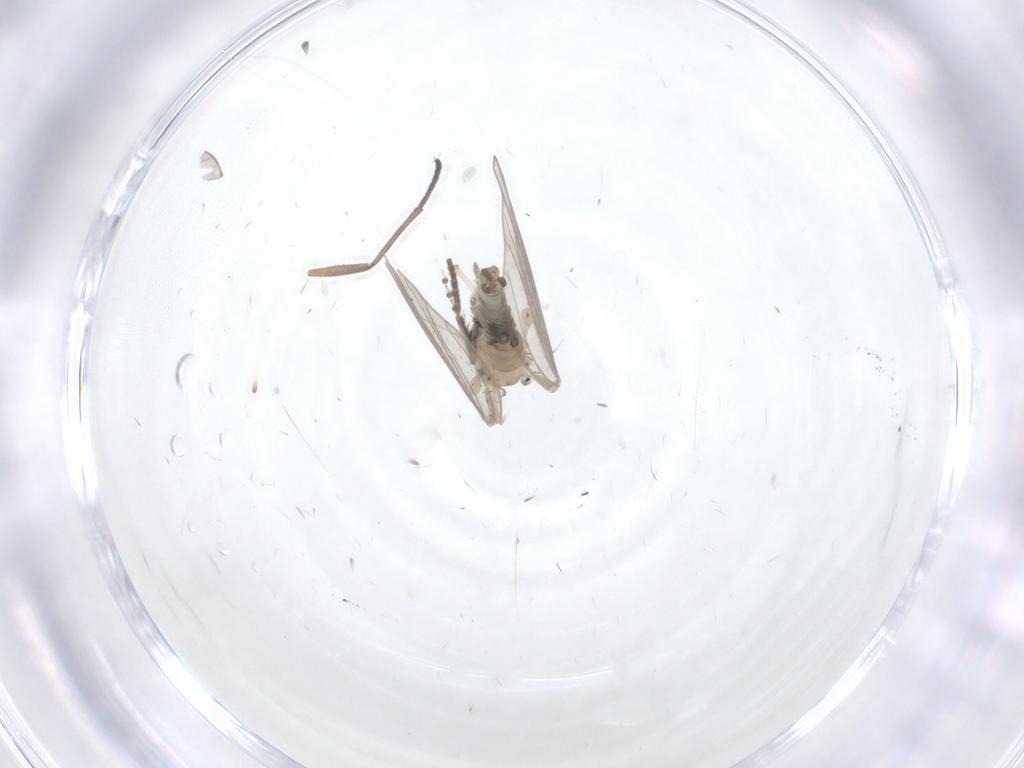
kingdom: Animalia
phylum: Arthropoda
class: Insecta
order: Diptera
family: Psychodidae
